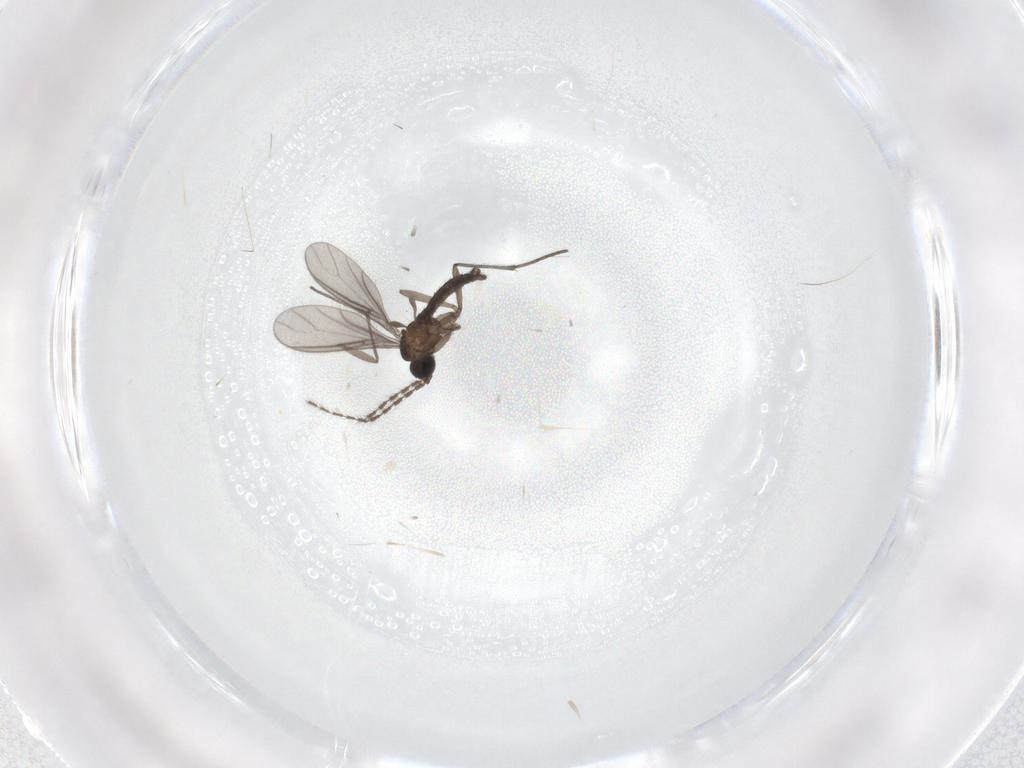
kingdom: Animalia
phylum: Arthropoda
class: Insecta
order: Diptera
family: Sciaridae
